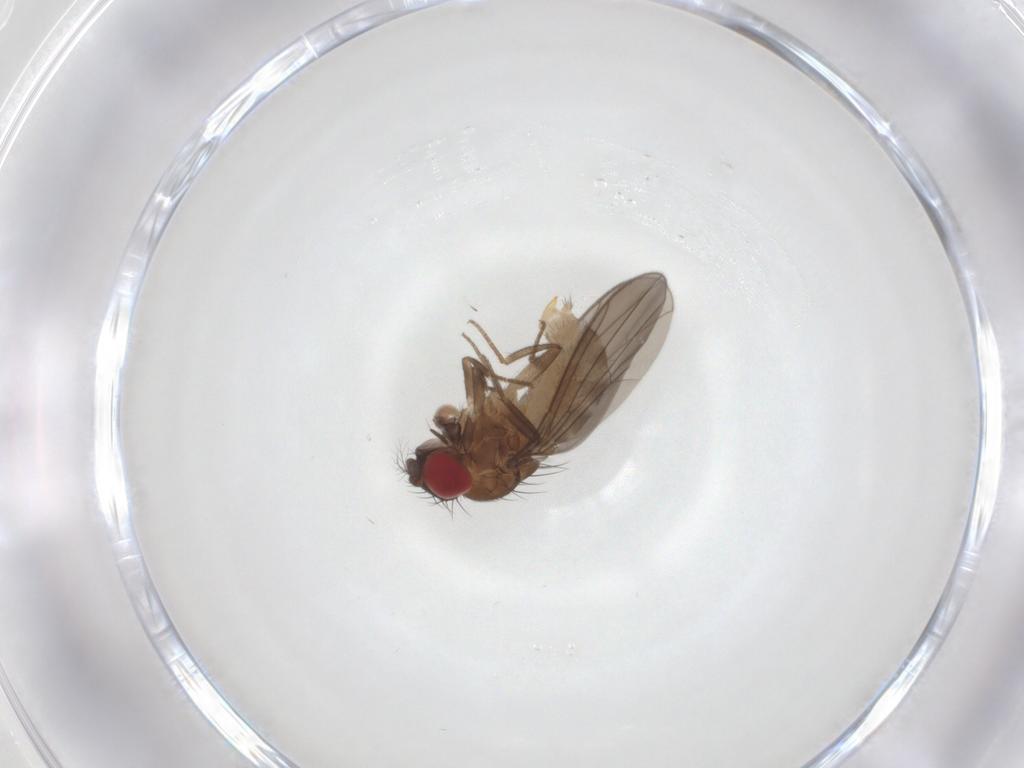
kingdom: Animalia
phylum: Arthropoda
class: Insecta
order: Diptera
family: Drosophilidae
